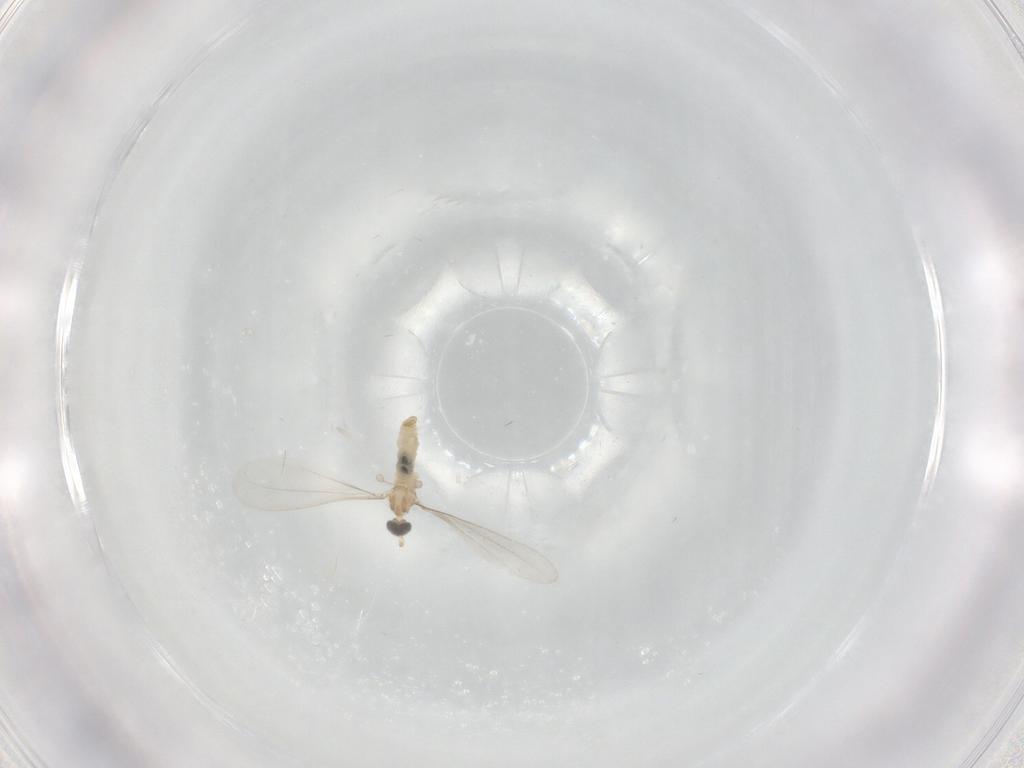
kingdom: Animalia
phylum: Arthropoda
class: Insecta
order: Diptera
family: Cecidomyiidae
